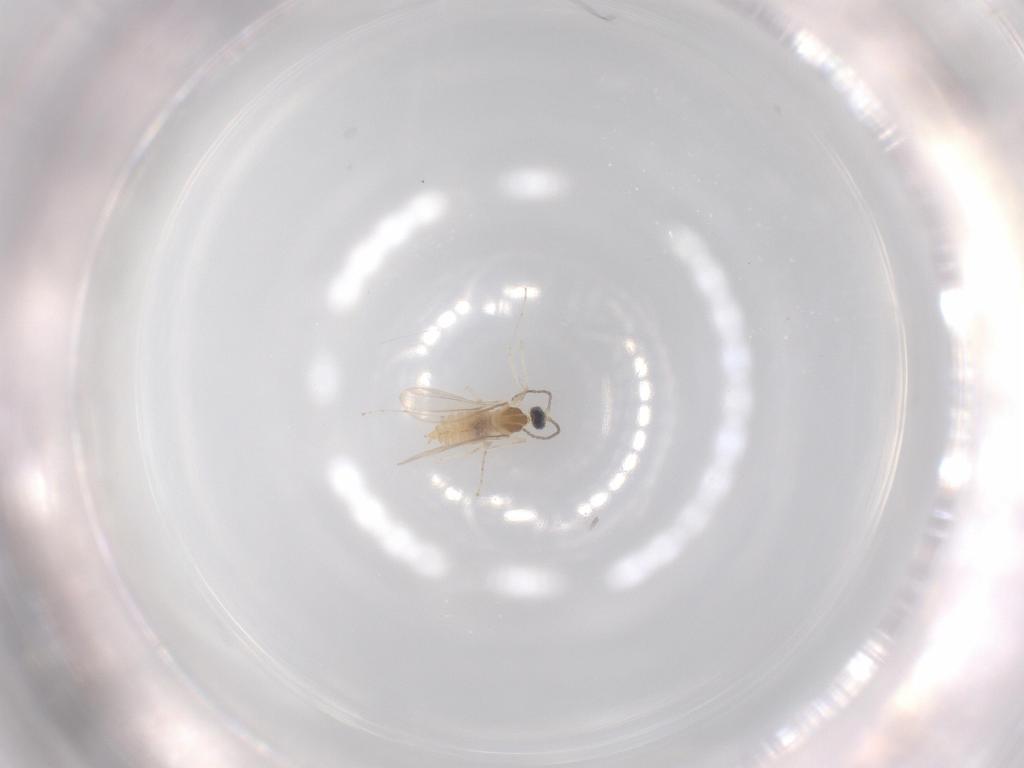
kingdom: Animalia
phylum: Arthropoda
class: Insecta
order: Diptera
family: Cecidomyiidae
